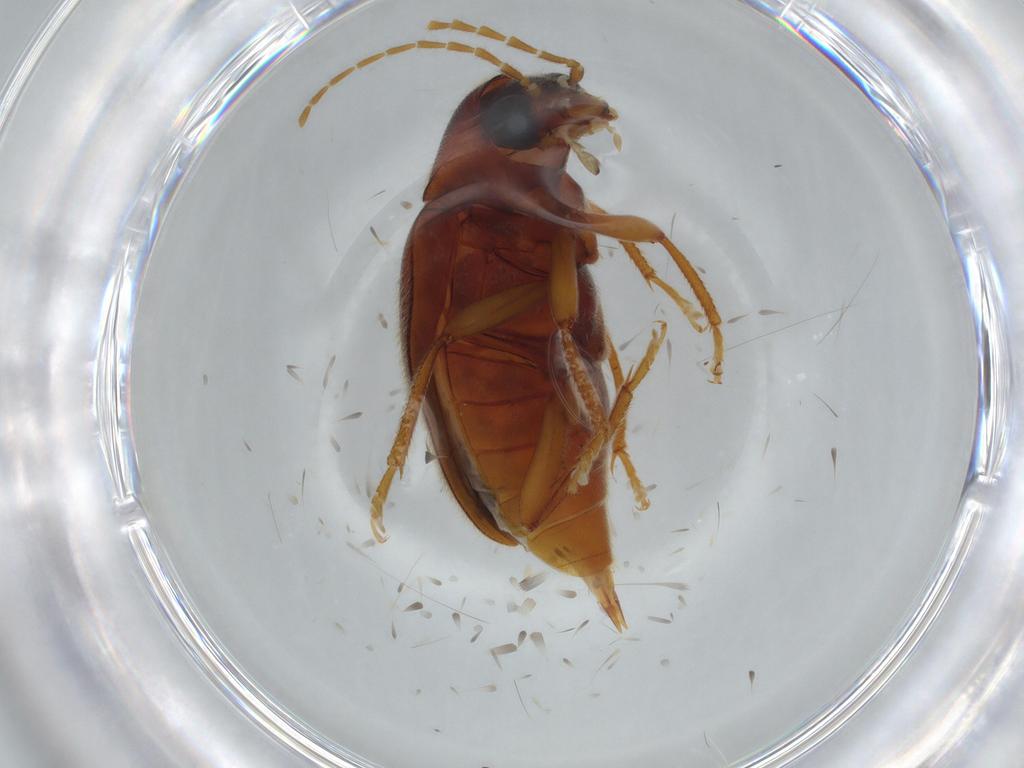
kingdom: Animalia
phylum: Arthropoda
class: Insecta
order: Coleoptera
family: Ptilodactylidae
